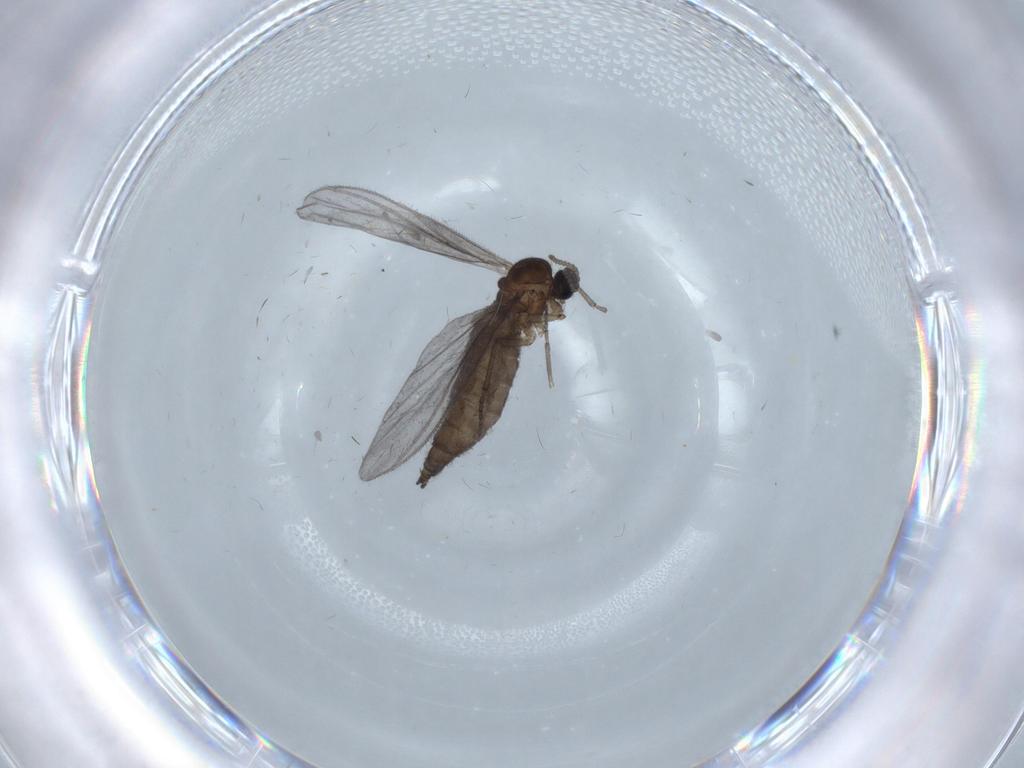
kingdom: Animalia
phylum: Arthropoda
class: Insecta
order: Diptera
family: Sciaridae
